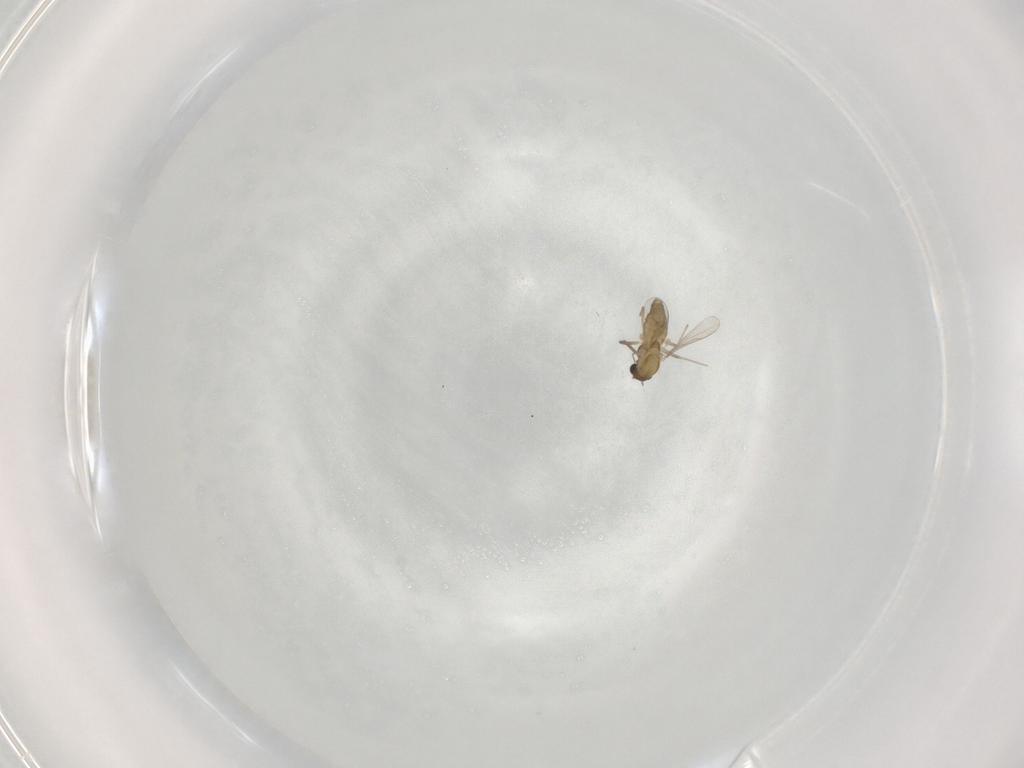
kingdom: Animalia
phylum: Arthropoda
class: Insecta
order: Diptera
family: Chironomidae
